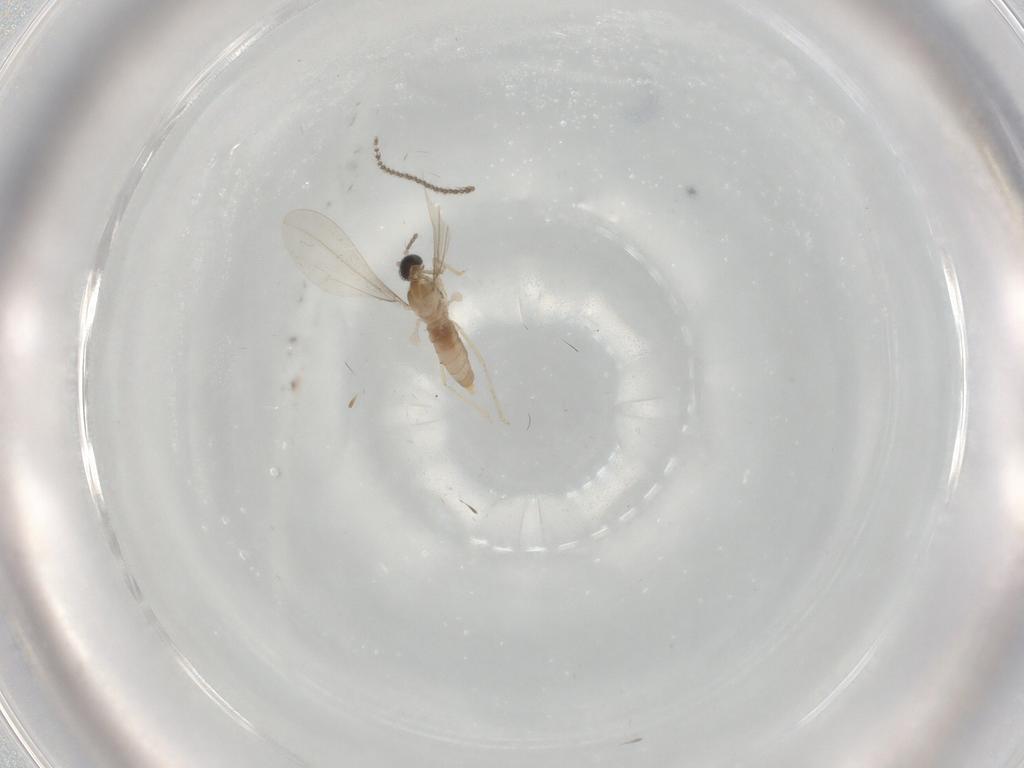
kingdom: Animalia
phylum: Arthropoda
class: Insecta
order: Diptera
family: Cecidomyiidae
